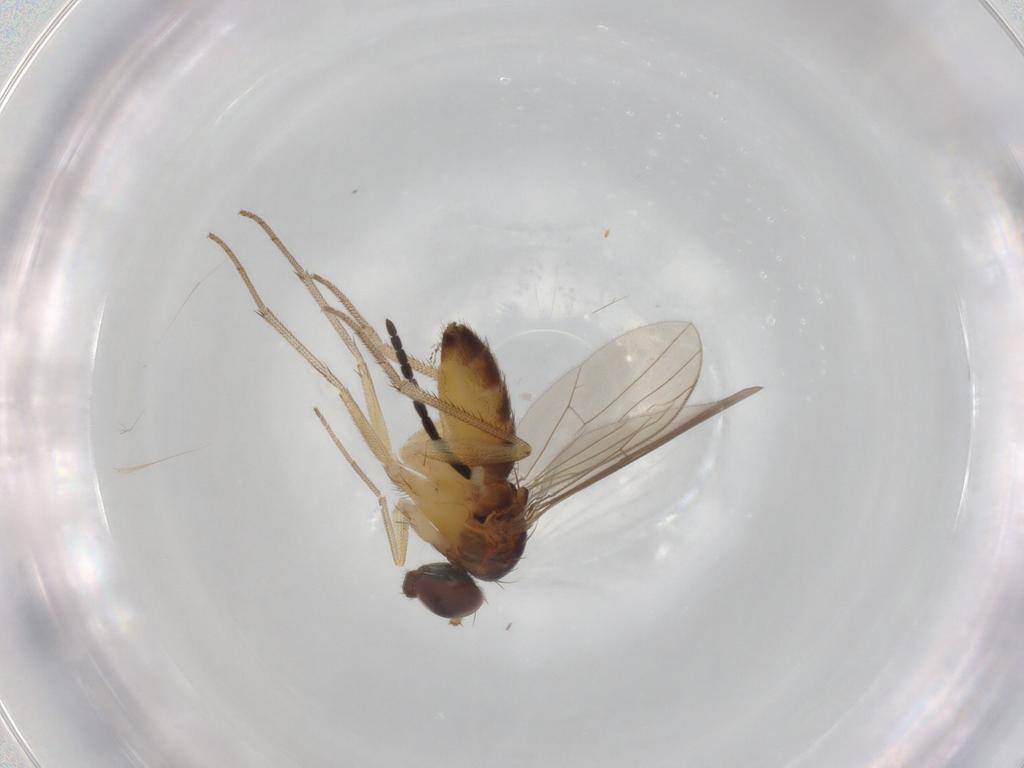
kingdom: Animalia
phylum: Arthropoda
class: Insecta
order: Diptera
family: Dolichopodidae
